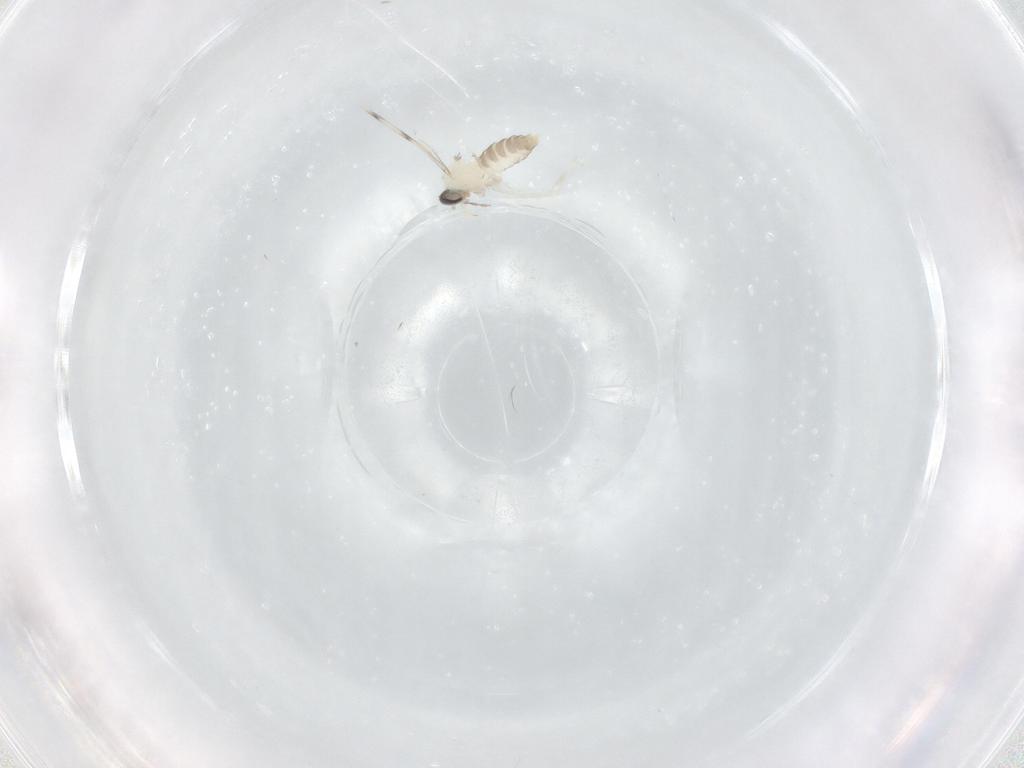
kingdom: Animalia
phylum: Arthropoda
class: Insecta
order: Diptera
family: Cecidomyiidae
